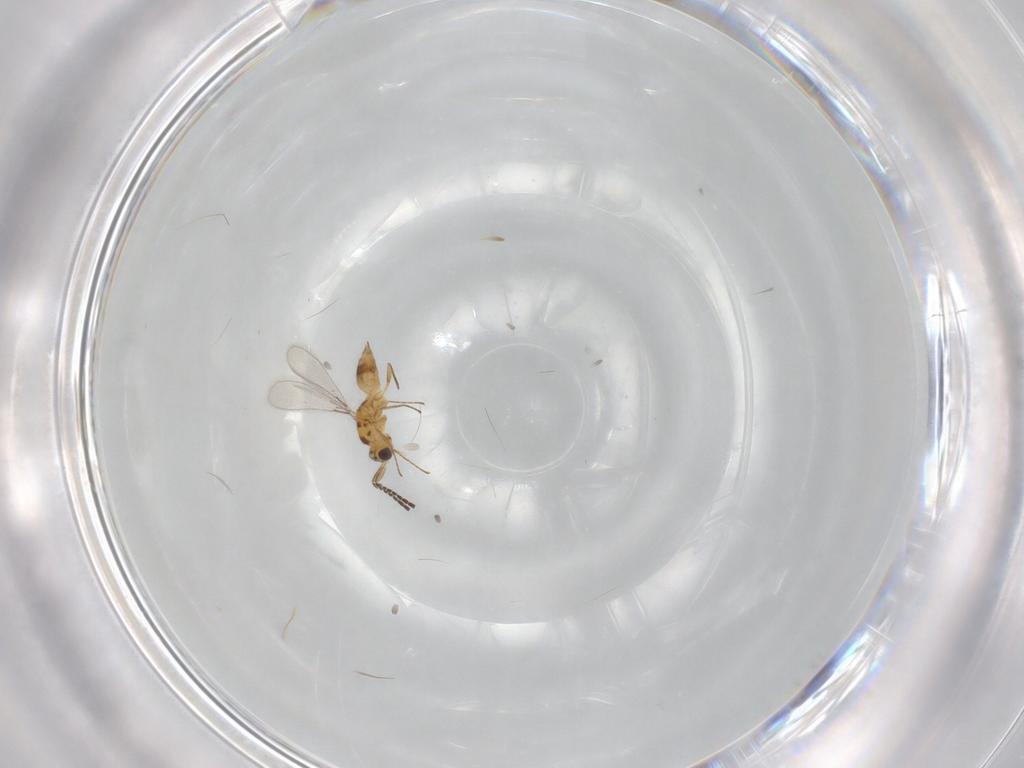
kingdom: Animalia
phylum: Arthropoda
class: Insecta
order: Hymenoptera
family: Mymaridae
